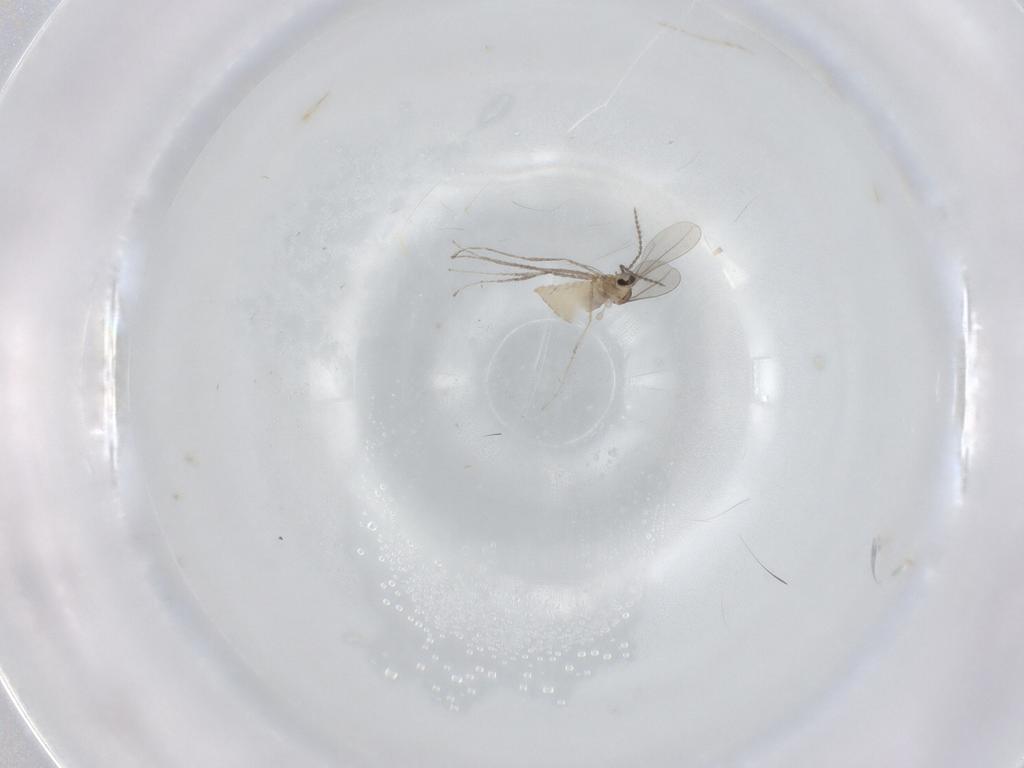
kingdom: Animalia
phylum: Arthropoda
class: Insecta
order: Diptera
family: Cecidomyiidae
